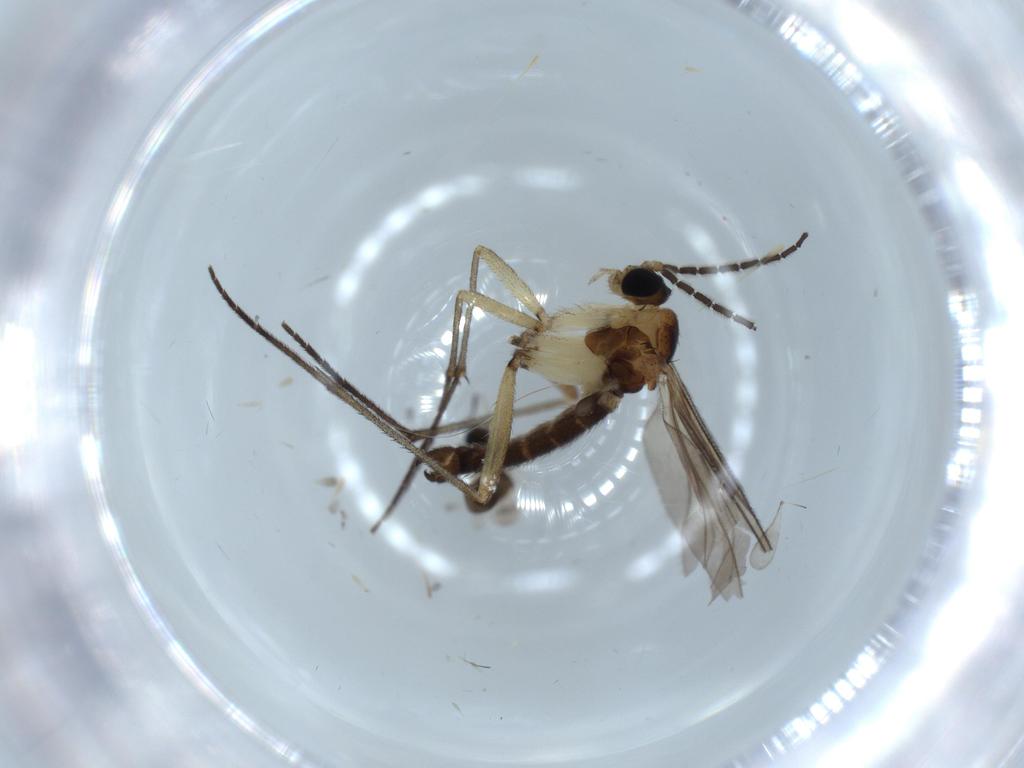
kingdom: Animalia
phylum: Arthropoda
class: Insecta
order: Diptera
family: Sciaridae
